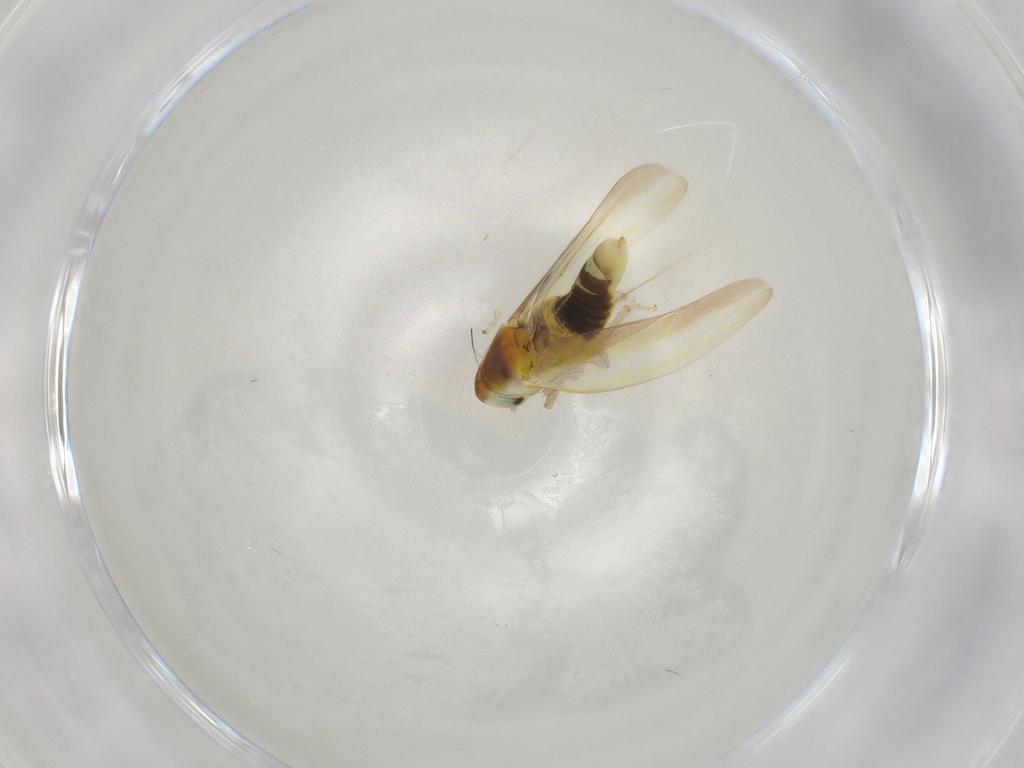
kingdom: Animalia
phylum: Arthropoda
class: Insecta
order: Hemiptera
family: Cicadellidae
